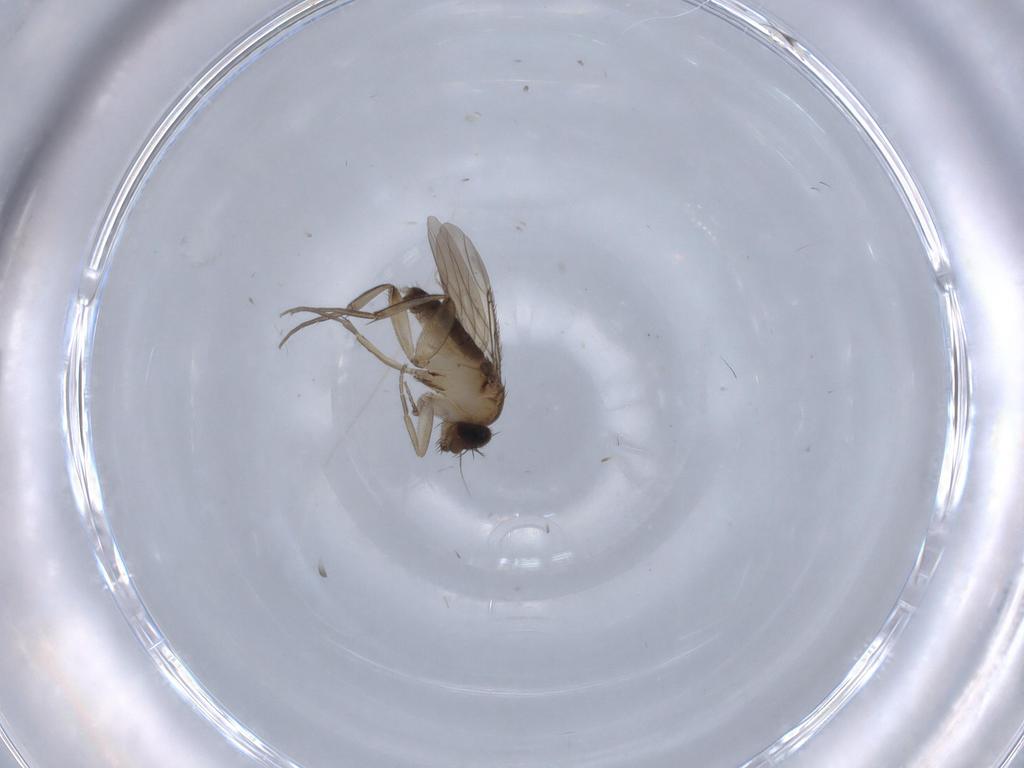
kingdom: Animalia
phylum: Arthropoda
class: Insecta
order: Diptera
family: Phoridae
